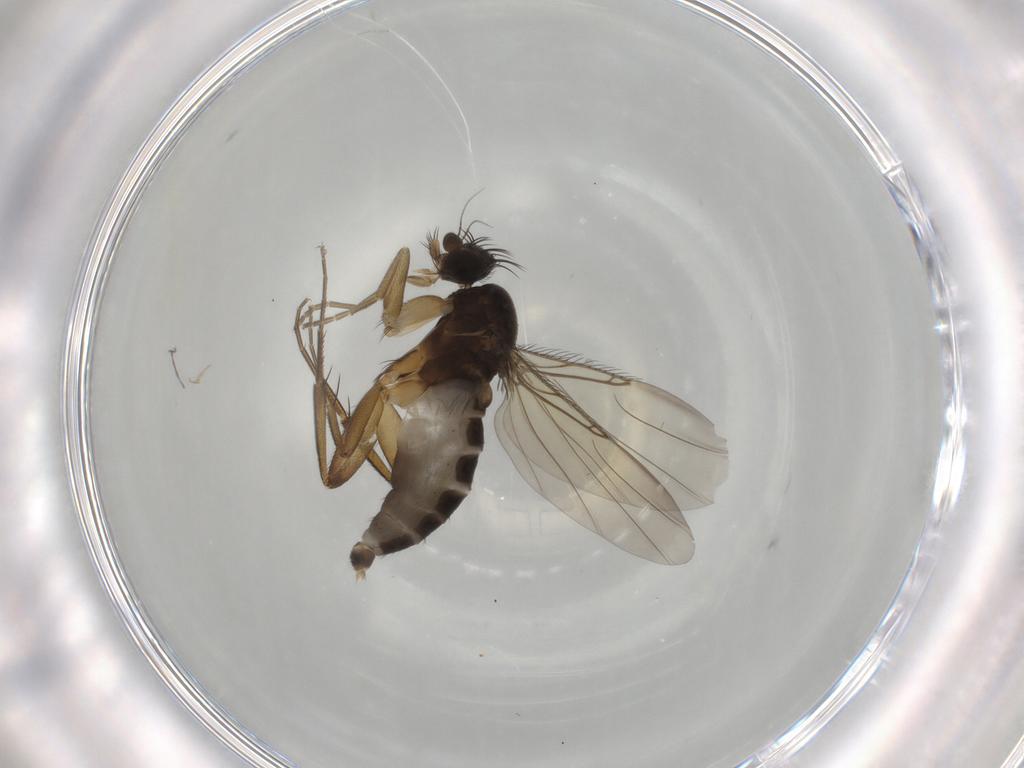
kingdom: Animalia
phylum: Arthropoda
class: Insecta
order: Diptera
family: Phoridae
